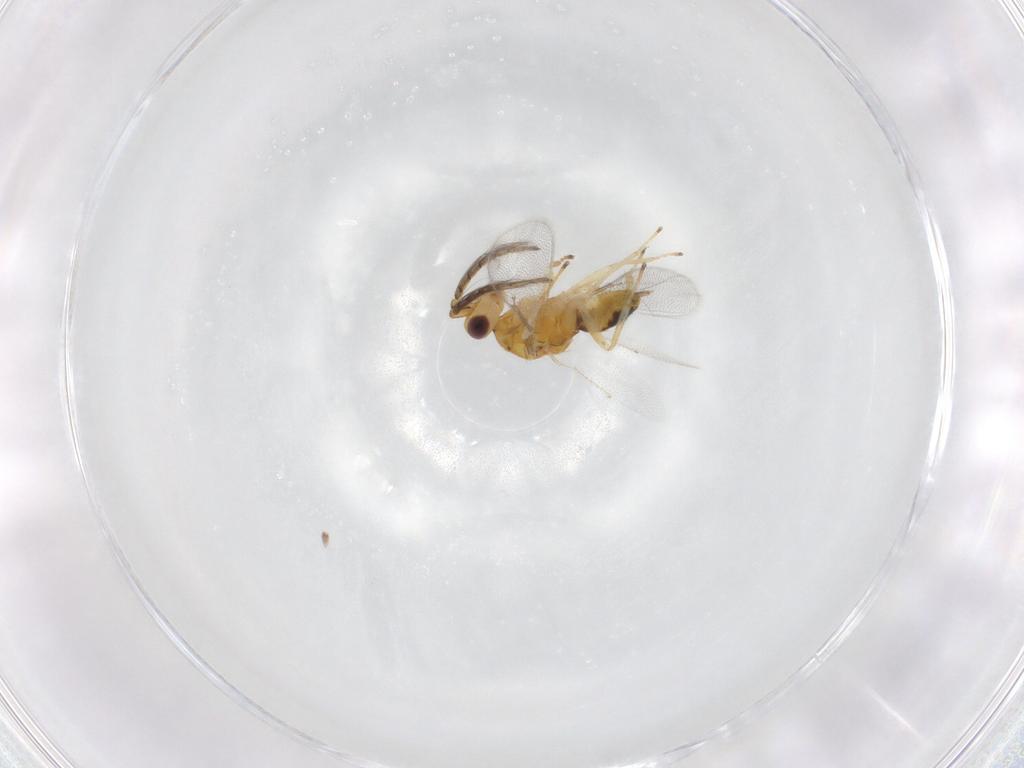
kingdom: Animalia
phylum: Arthropoda
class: Insecta
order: Hymenoptera
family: Eulophidae
